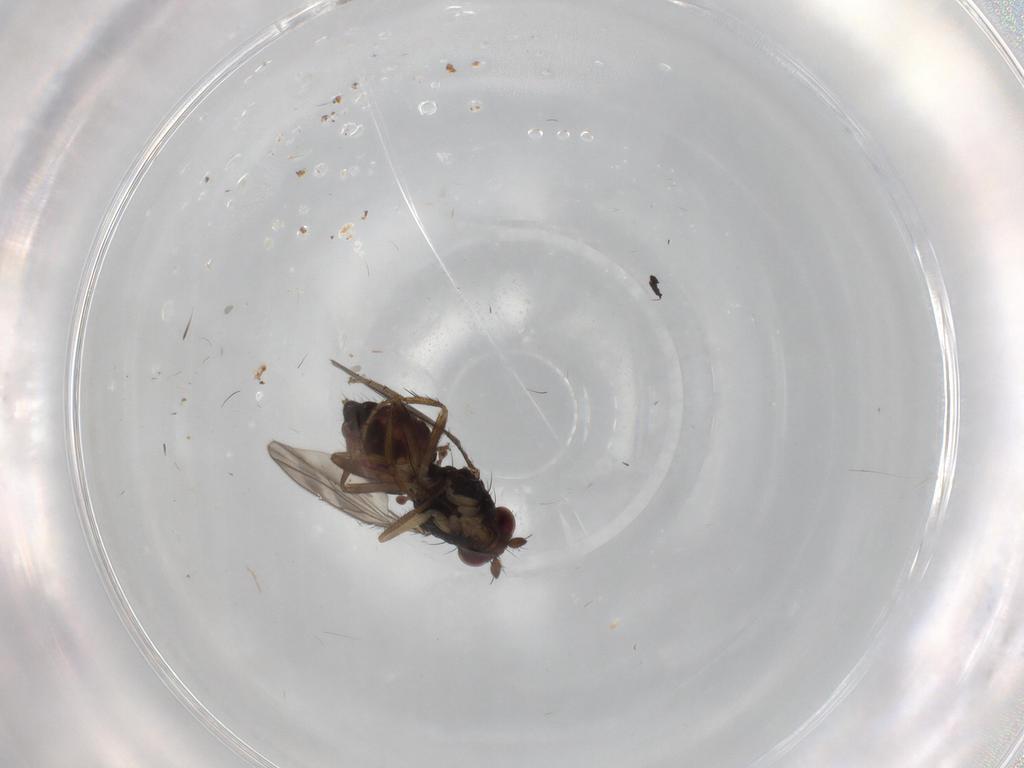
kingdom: Animalia
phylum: Arthropoda
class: Insecta
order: Diptera
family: Sphaeroceridae
